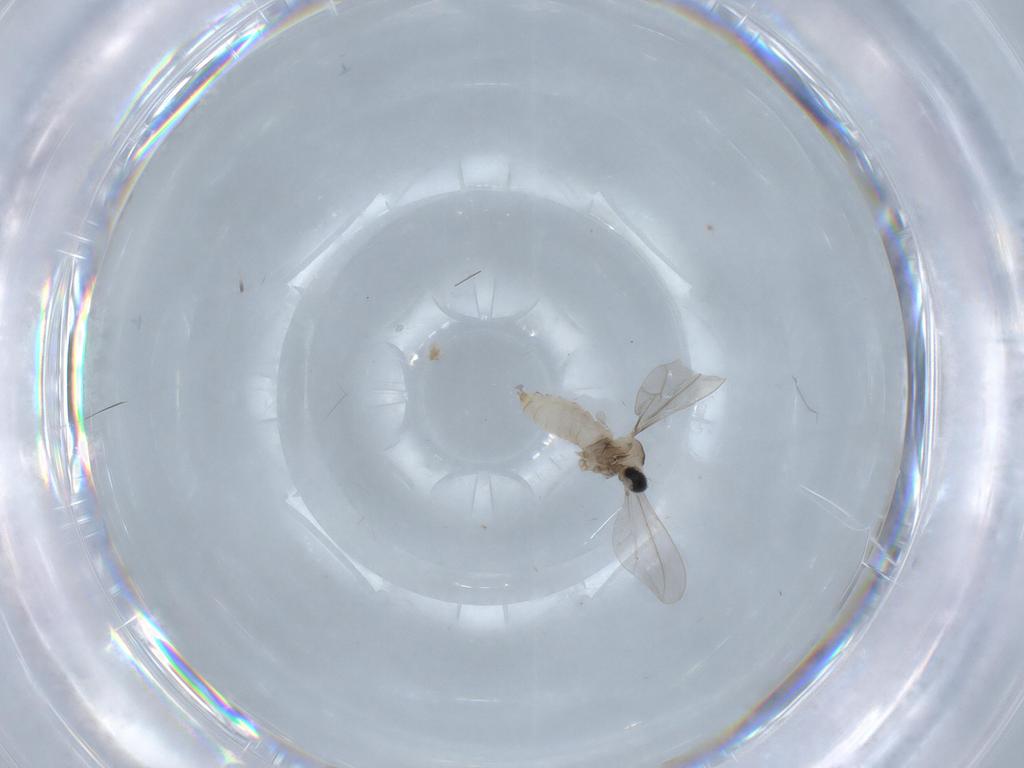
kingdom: Animalia
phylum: Arthropoda
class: Insecta
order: Diptera
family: Cecidomyiidae
